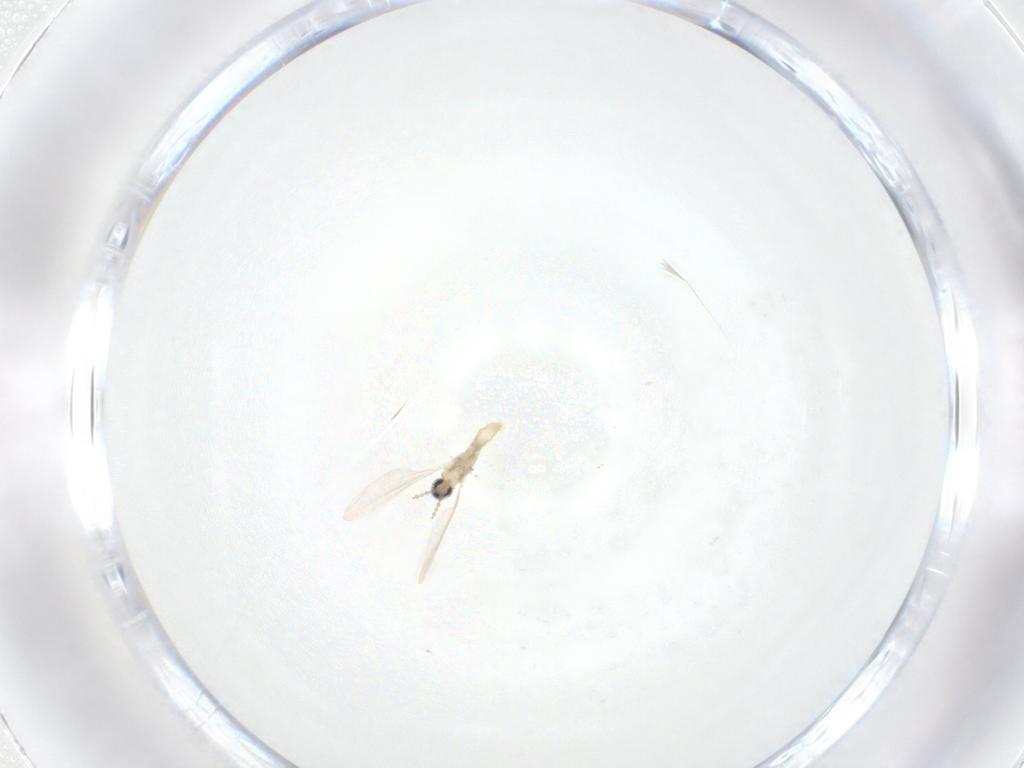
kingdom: Animalia
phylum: Arthropoda
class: Insecta
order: Diptera
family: Cecidomyiidae
